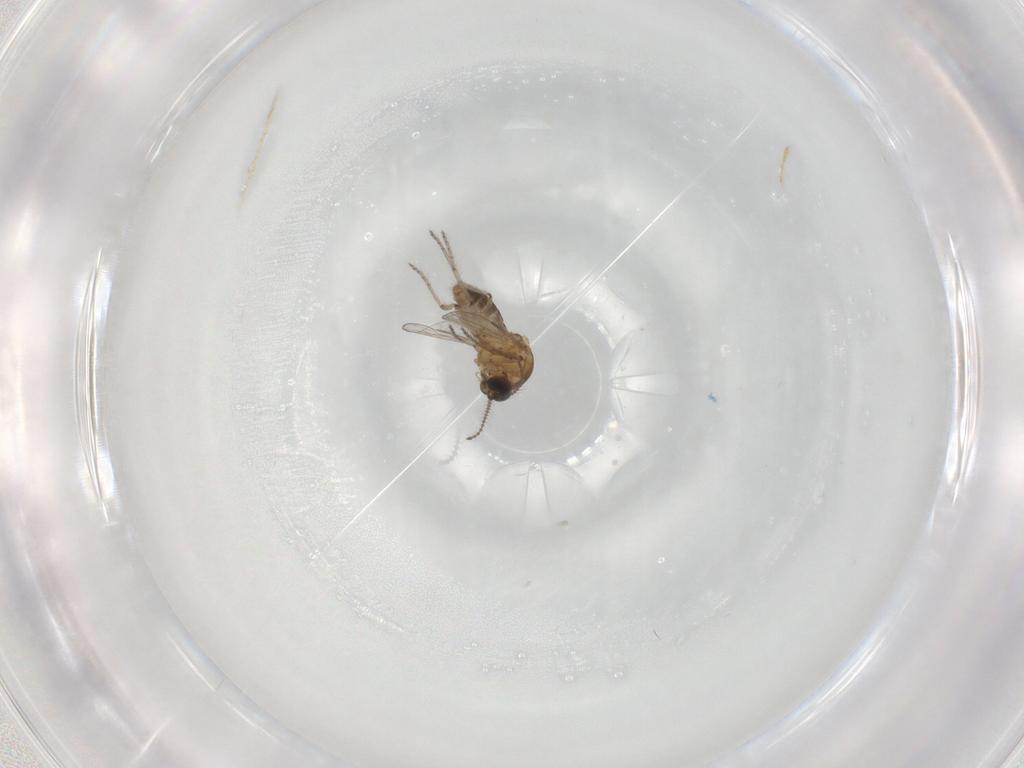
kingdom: Animalia
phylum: Arthropoda
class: Insecta
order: Diptera
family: Ceratopogonidae
